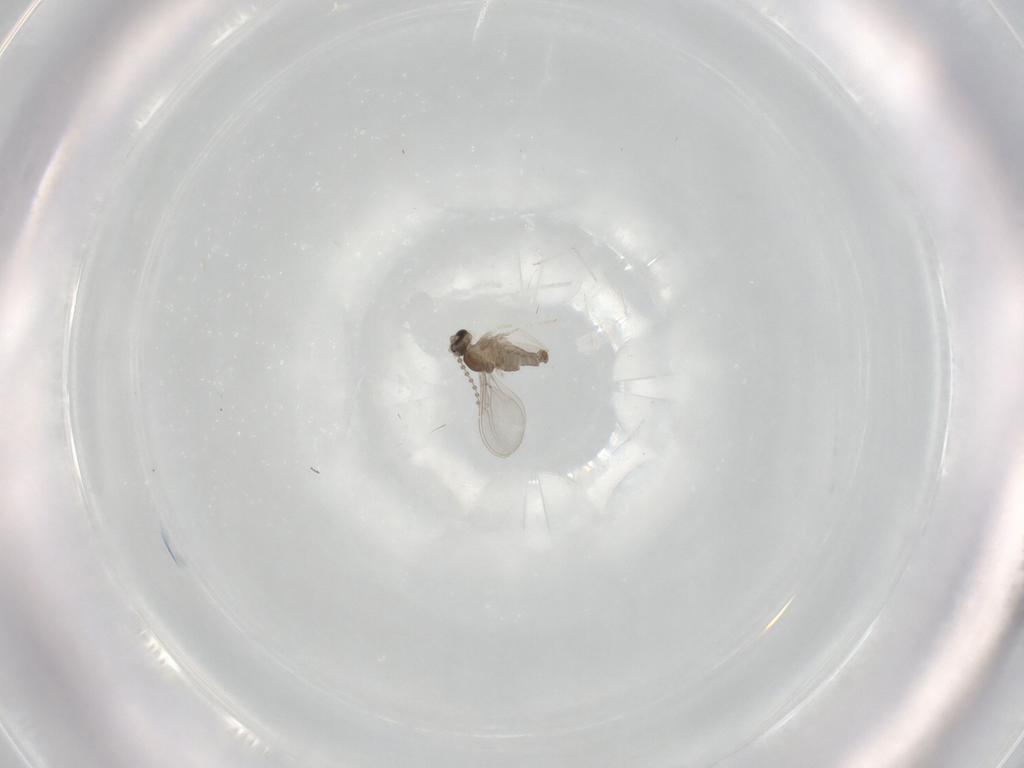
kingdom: Animalia
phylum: Arthropoda
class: Insecta
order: Diptera
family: Cecidomyiidae
